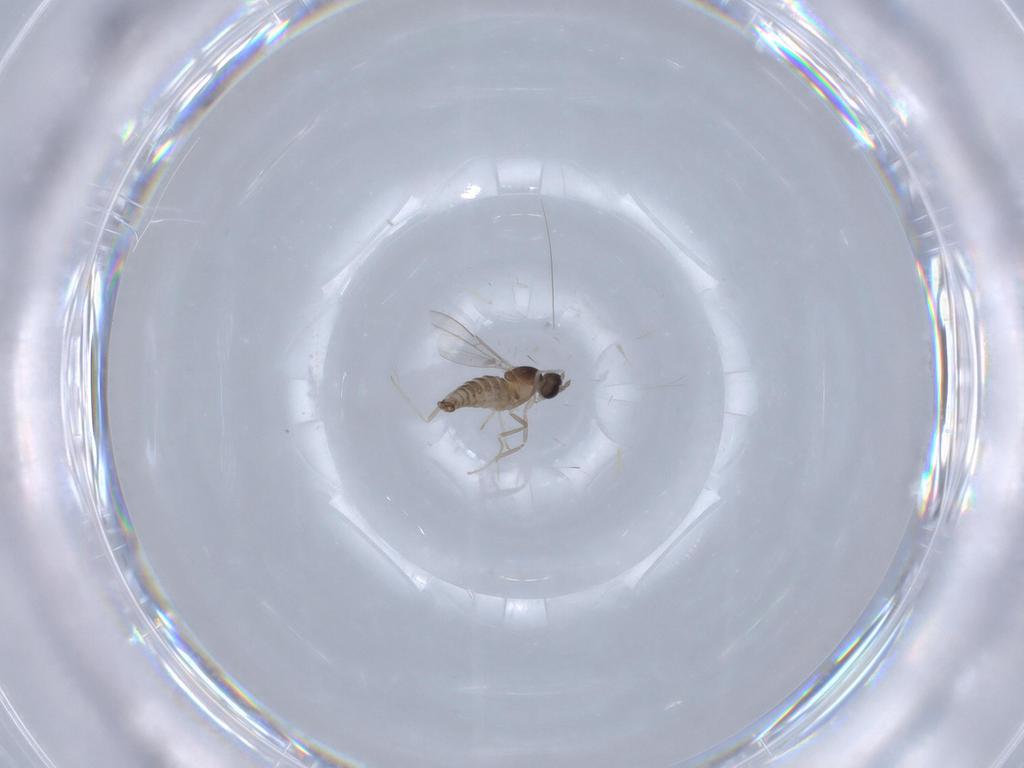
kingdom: Animalia
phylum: Arthropoda
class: Insecta
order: Diptera
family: Cecidomyiidae
